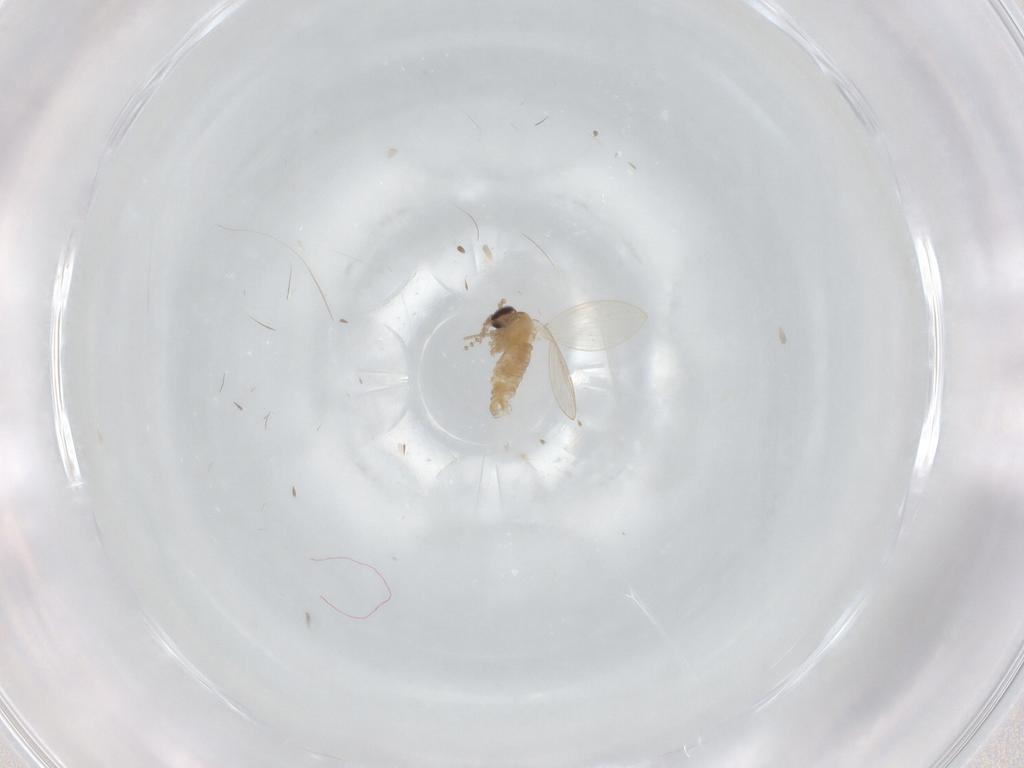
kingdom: Animalia
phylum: Arthropoda
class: Insecta
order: Diptera
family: Psychodidae
